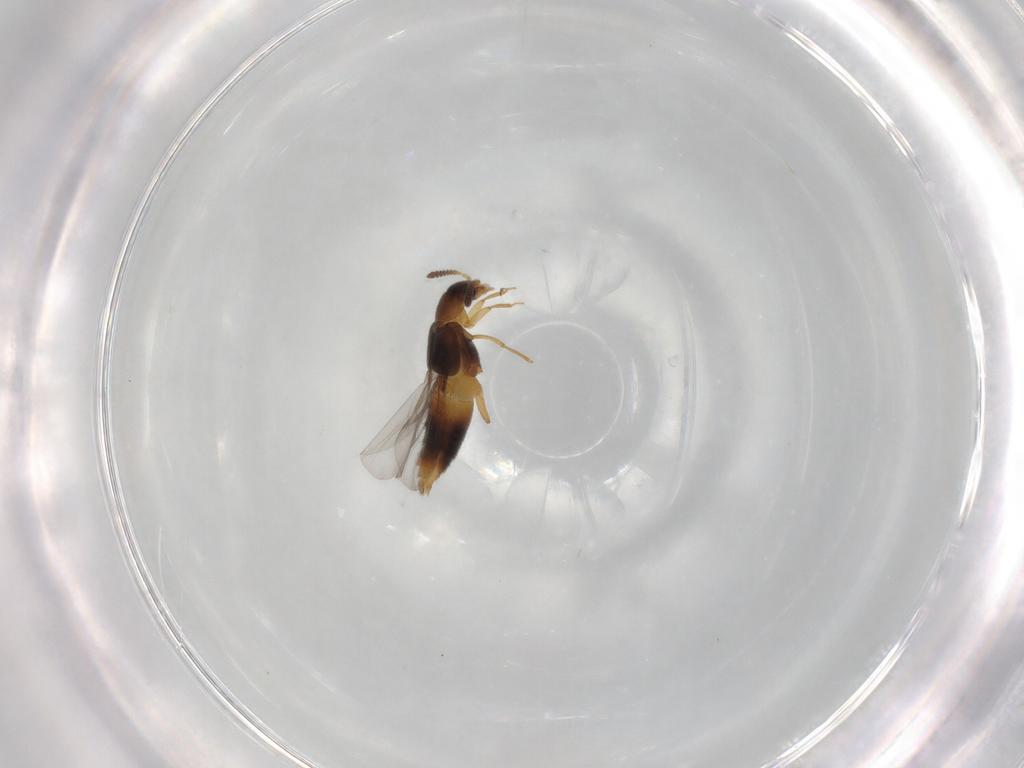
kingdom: Animalia
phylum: Arthropoda
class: Insecta
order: Coleoptera
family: Staphylinidae
